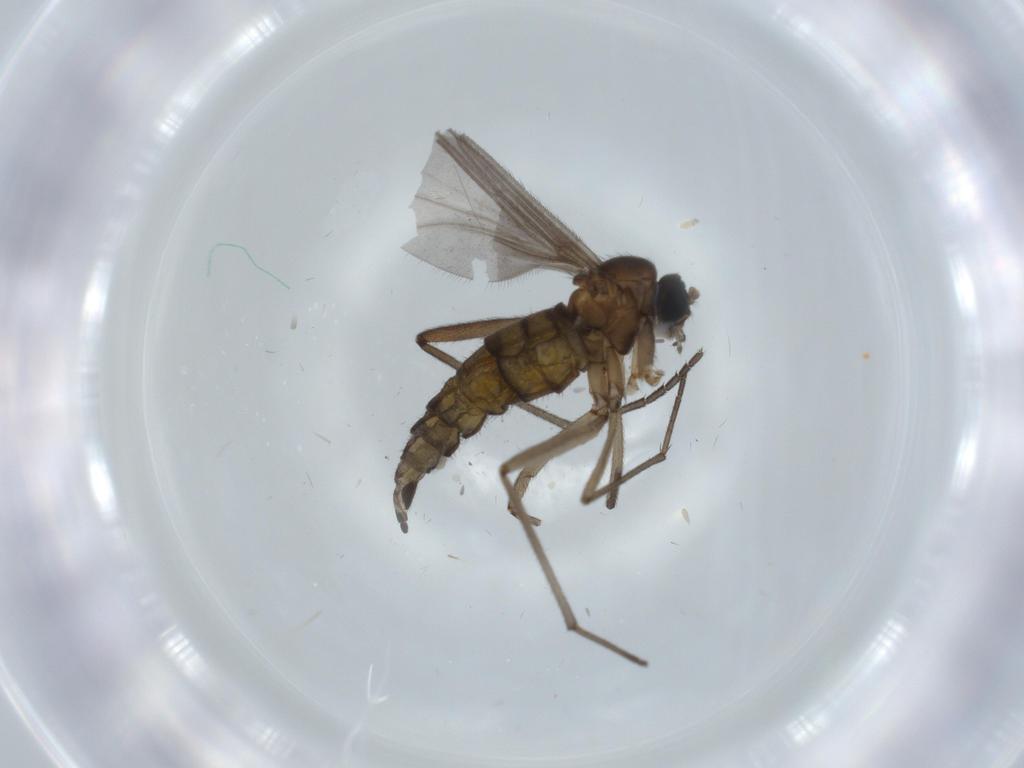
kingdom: Animalia
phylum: Arthropoda
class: Insecta
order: Diptera
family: Sciaridae
